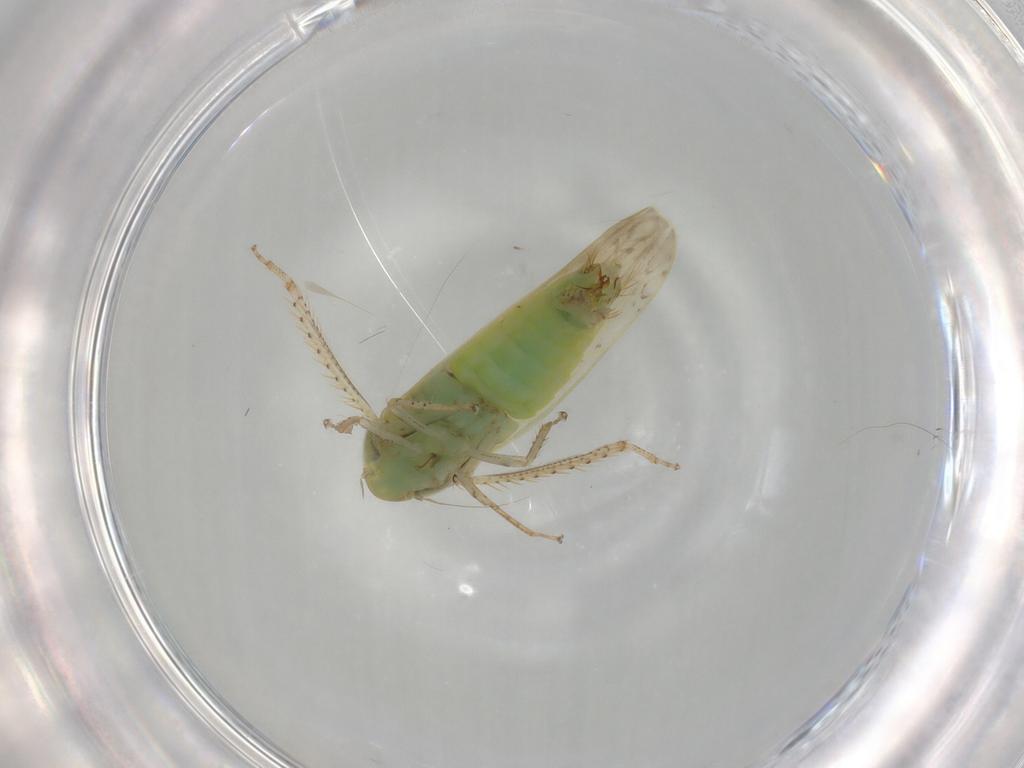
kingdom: Animalia
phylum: Arthropoda
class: Insecta
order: Hemiptera
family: Cicadellidae
